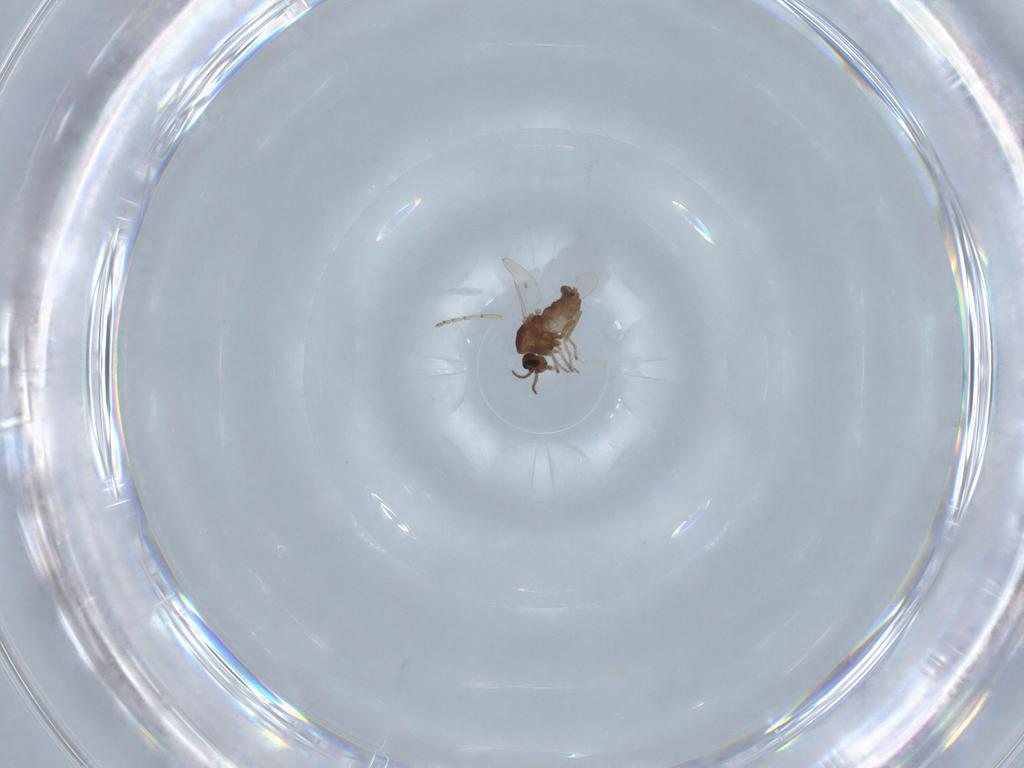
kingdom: Animalia
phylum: Arthropoda
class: Insecta
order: Diptera
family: Ceratopogonidae
